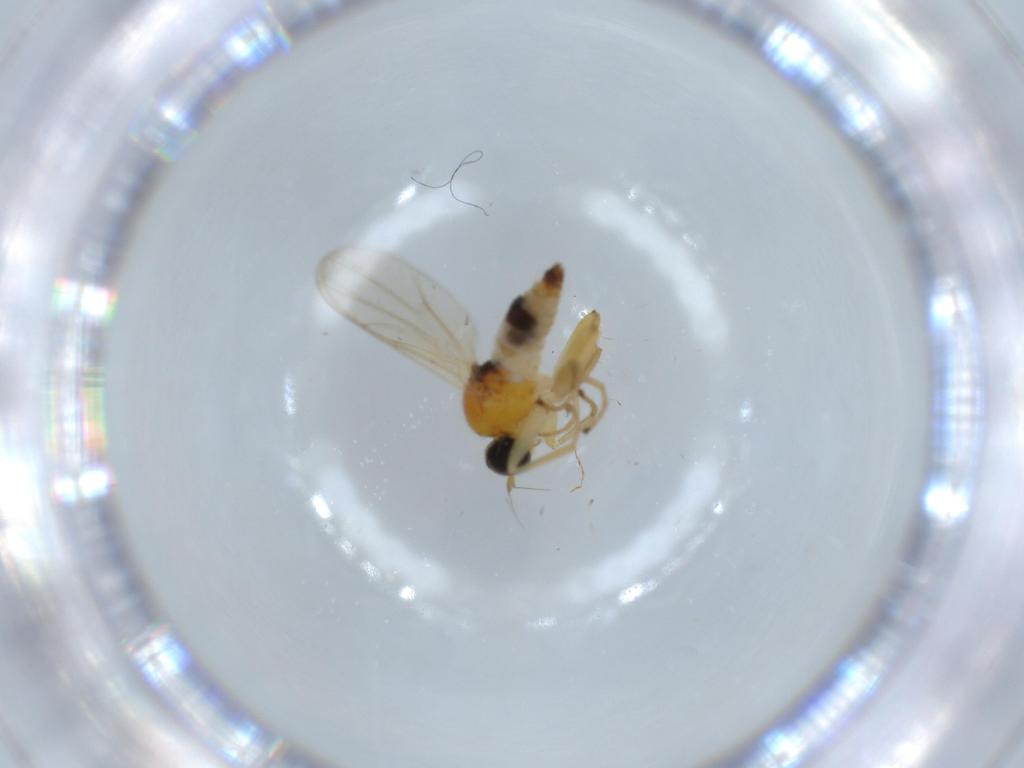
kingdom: Animalia
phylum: Arthropoda
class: Insecta
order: Diptera
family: Hybotidae
